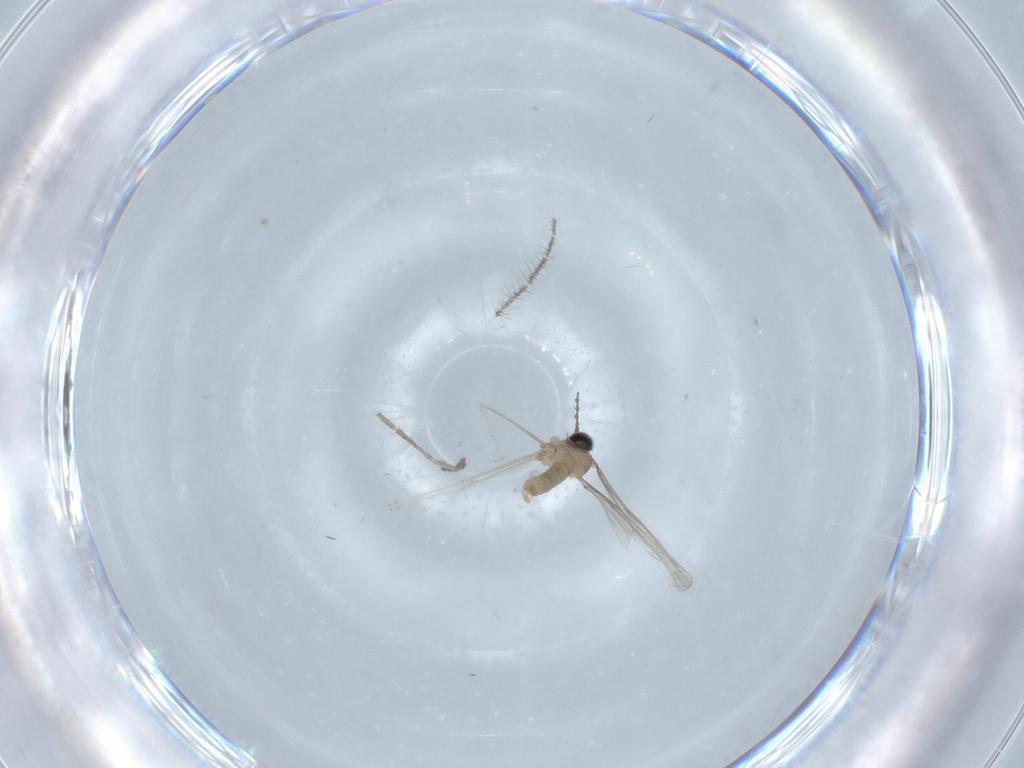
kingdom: Animalia
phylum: Arthropoda
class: Insecta
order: Diptera
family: Cecidomyiidae
